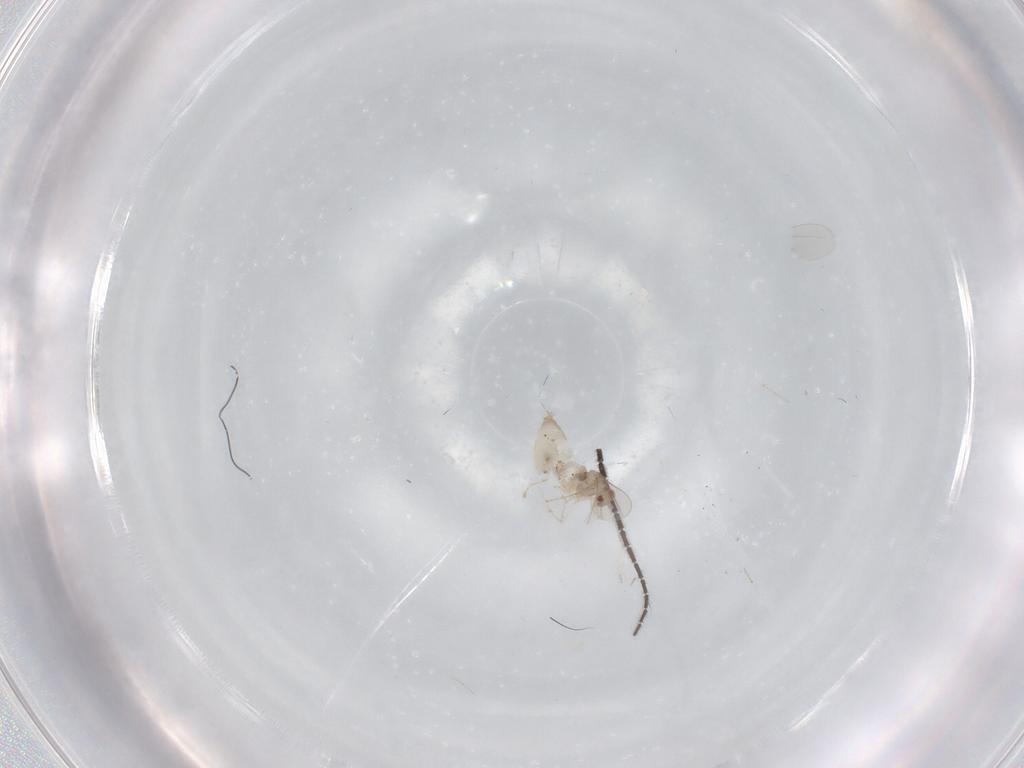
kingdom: Animalia
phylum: Arthropoda
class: Insecta
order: Diptera
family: Cecidomyiidae
